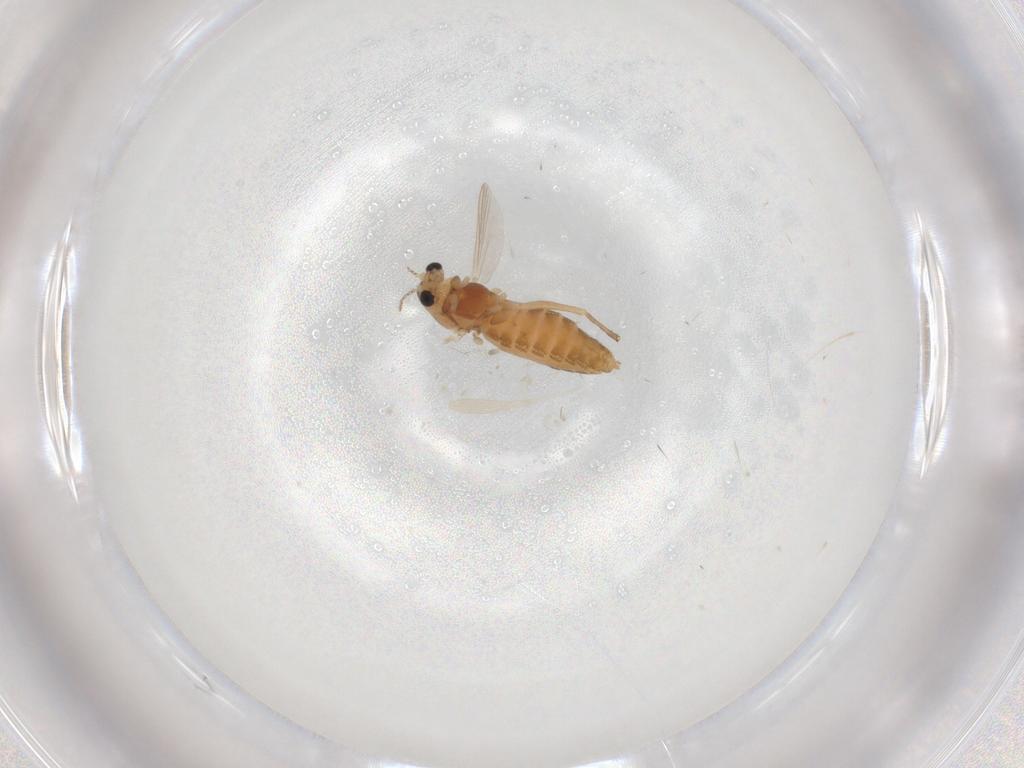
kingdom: Animalia
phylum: Arthropoda
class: Insecta
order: Diptera
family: Chironomidae
